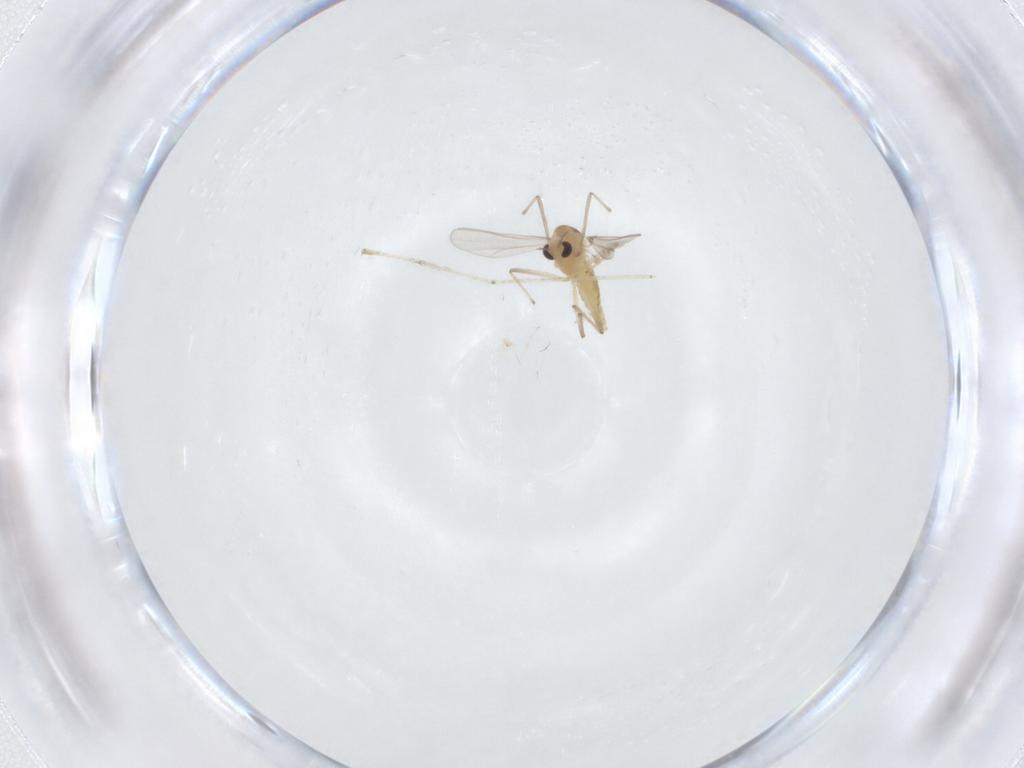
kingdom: Animalia
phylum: Arthropoda
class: Insecta
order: Diptera
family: Chironomidae
